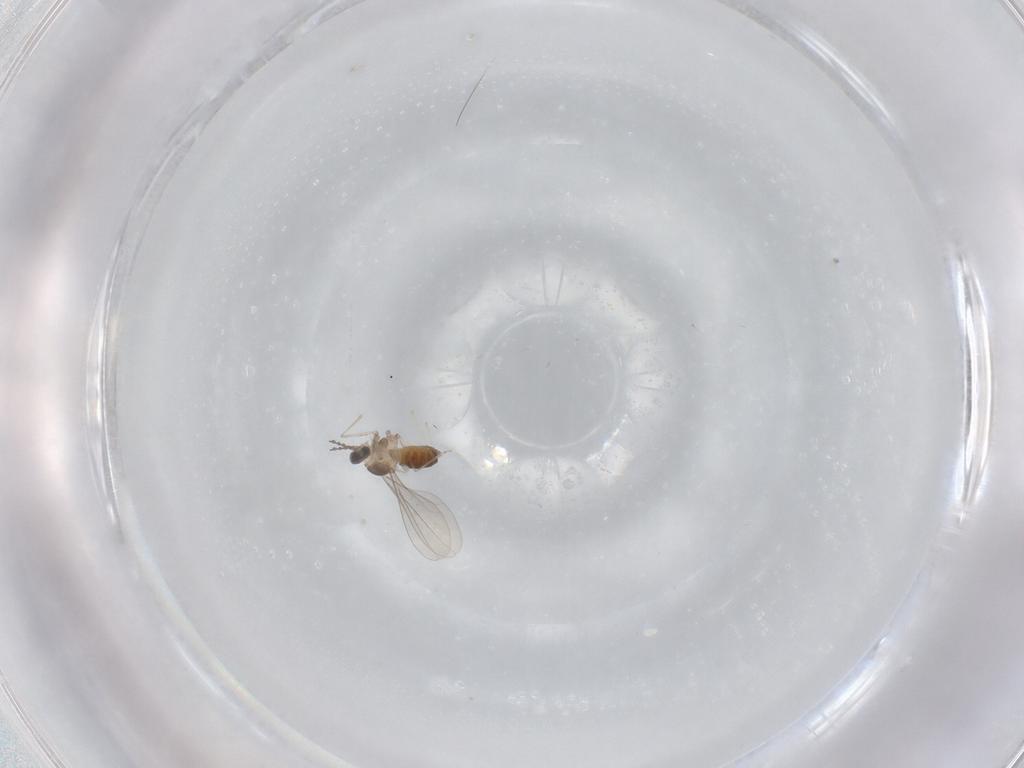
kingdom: Animalia
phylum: Arthropoda
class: Insecta
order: Diptera
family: Cecidomyiidae
